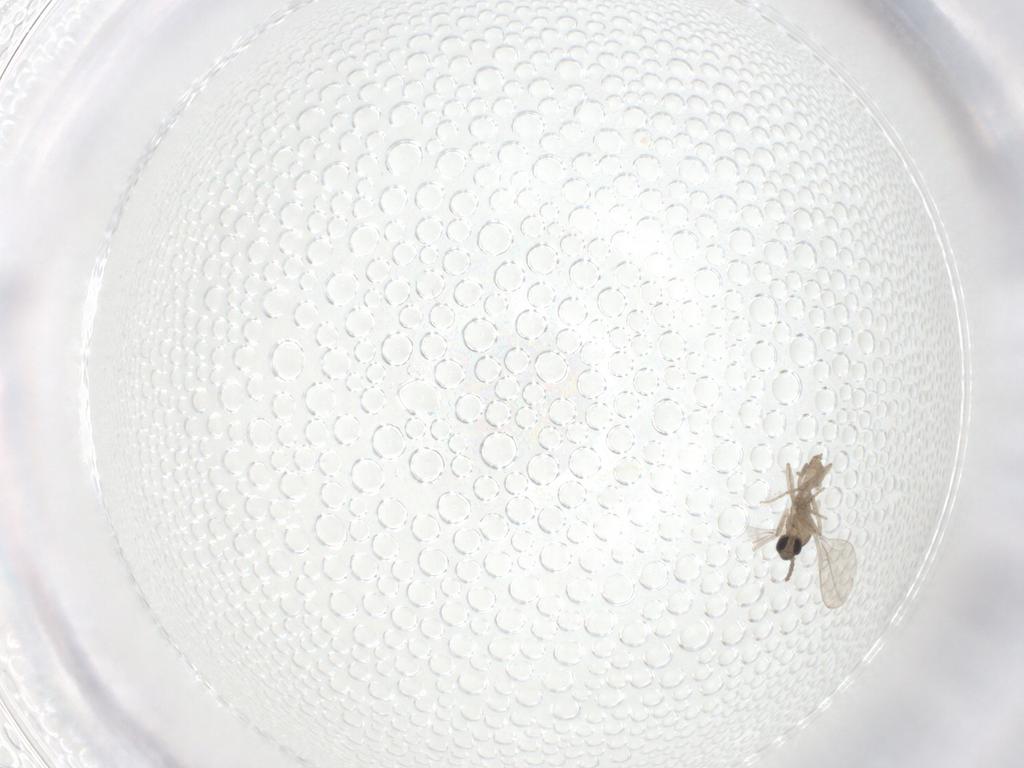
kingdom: Animalia
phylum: Arthropoda
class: Insecta
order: Diptera
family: Cecidomyiidae
